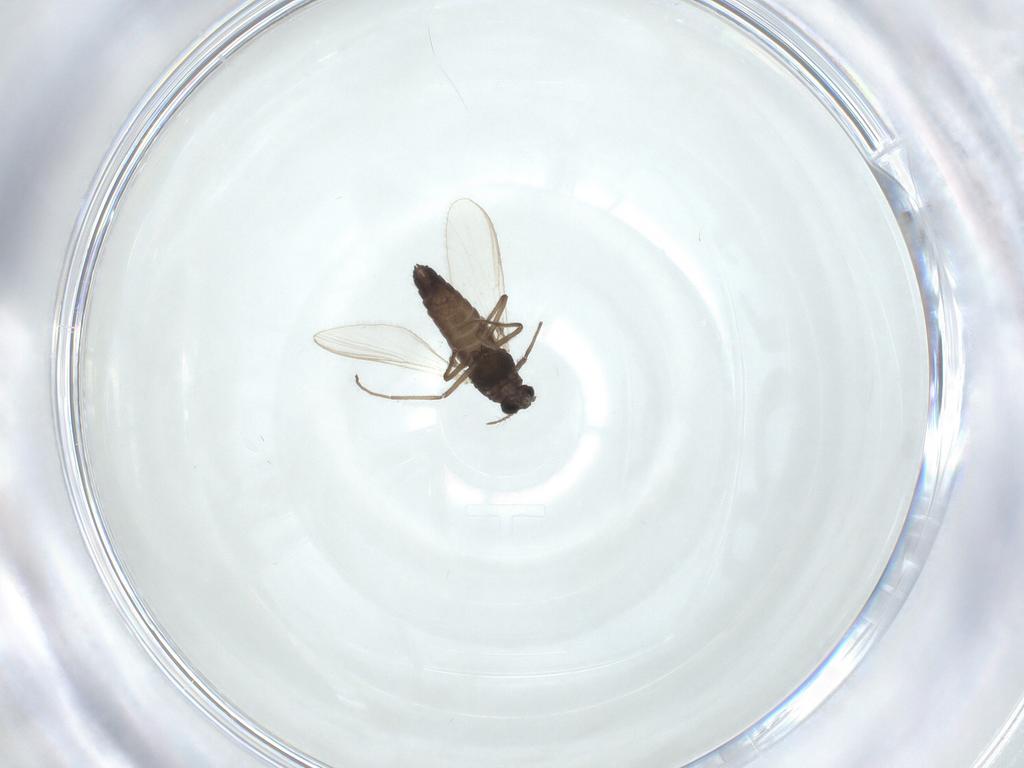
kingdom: Animalia
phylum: Arthropoda
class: Insecta
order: Diptera
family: Chironomidae
